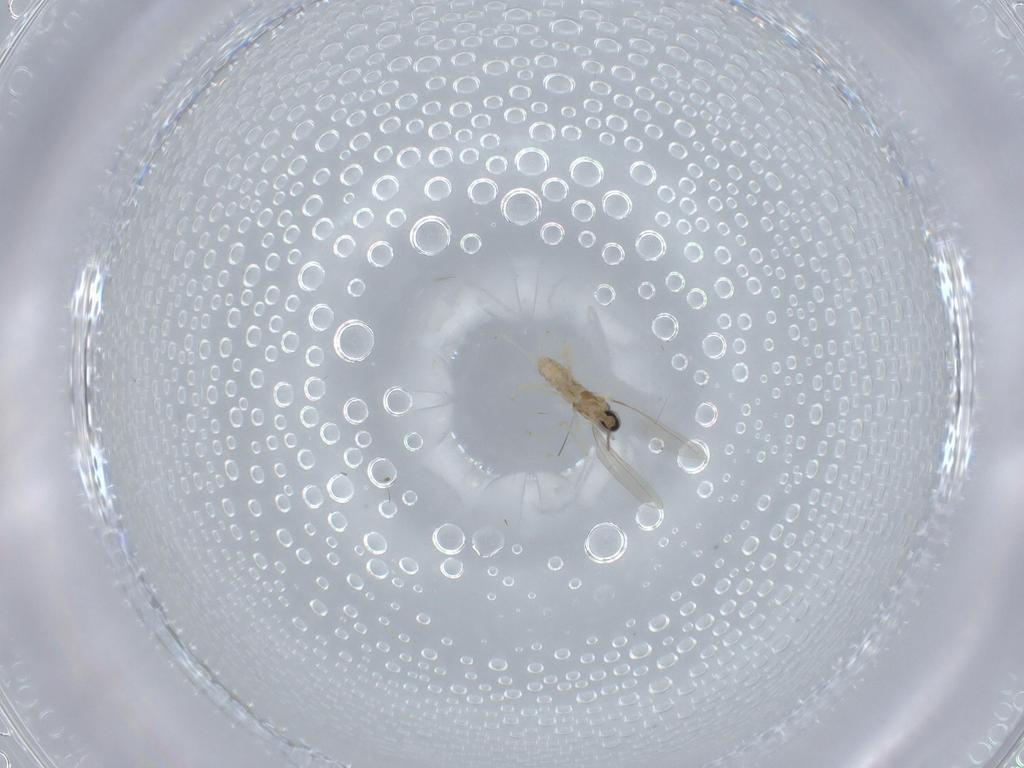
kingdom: Animalia
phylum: Arthropoda
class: Insecta
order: Diptera
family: Cecidomyiidae
